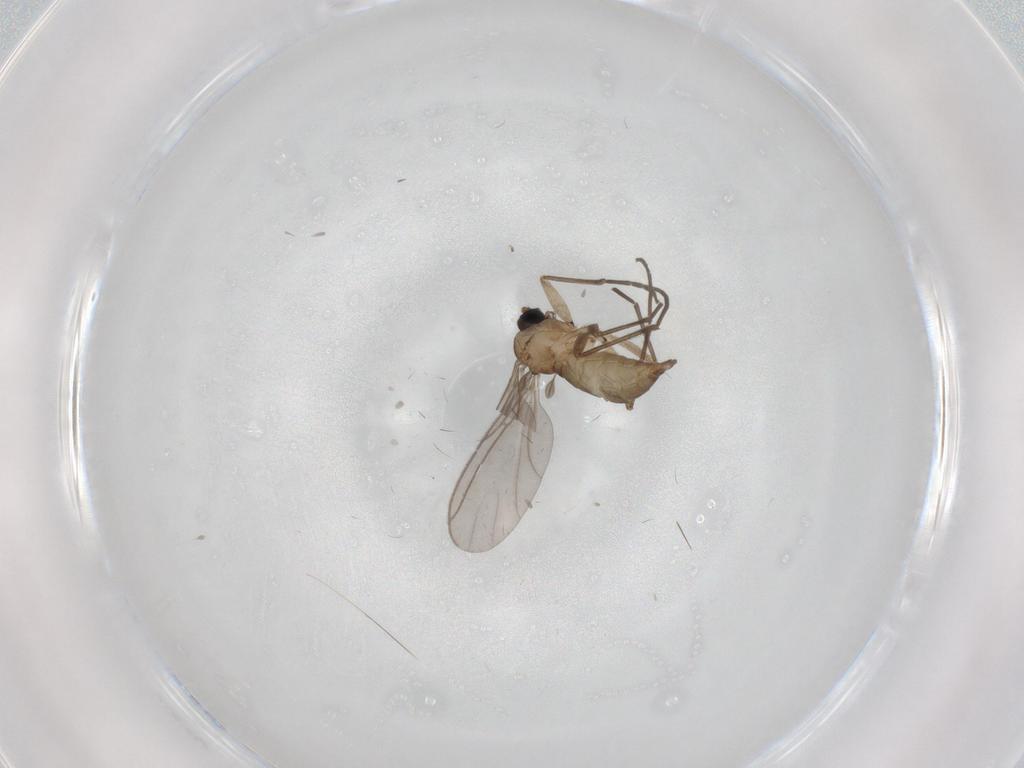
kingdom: Animalia
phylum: Arthropoda
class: Insecta
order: Diptera
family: Sciaridae
